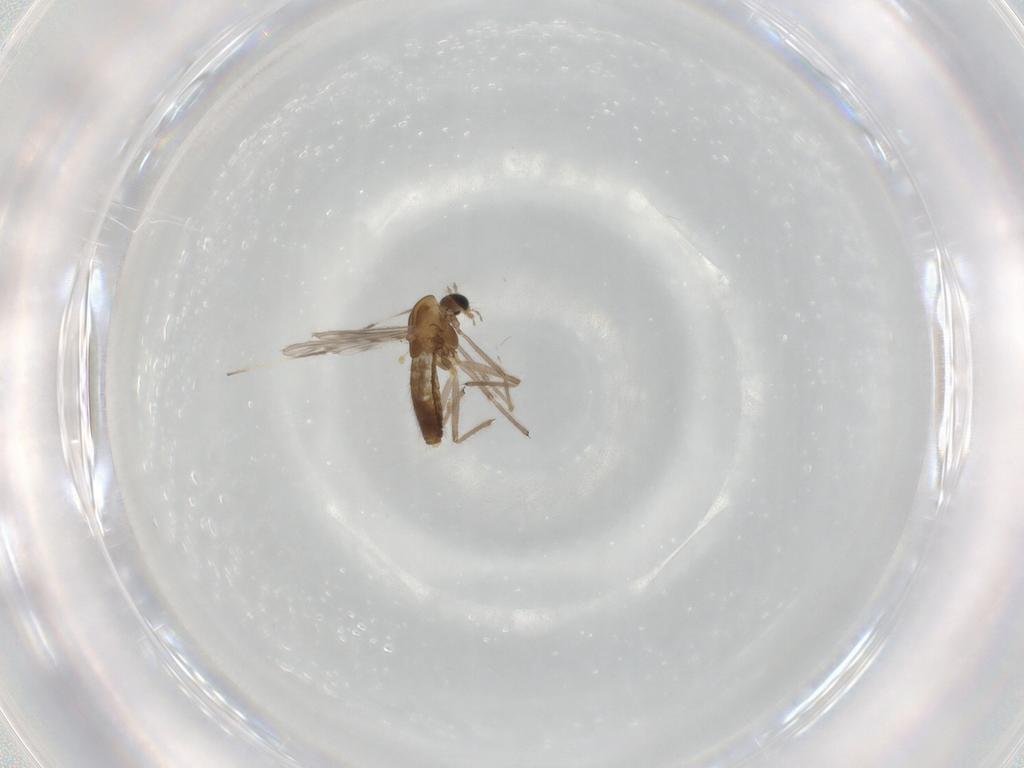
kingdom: Animalia
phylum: Arthropoda
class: Insecta
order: Diptera
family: Chironomidae
